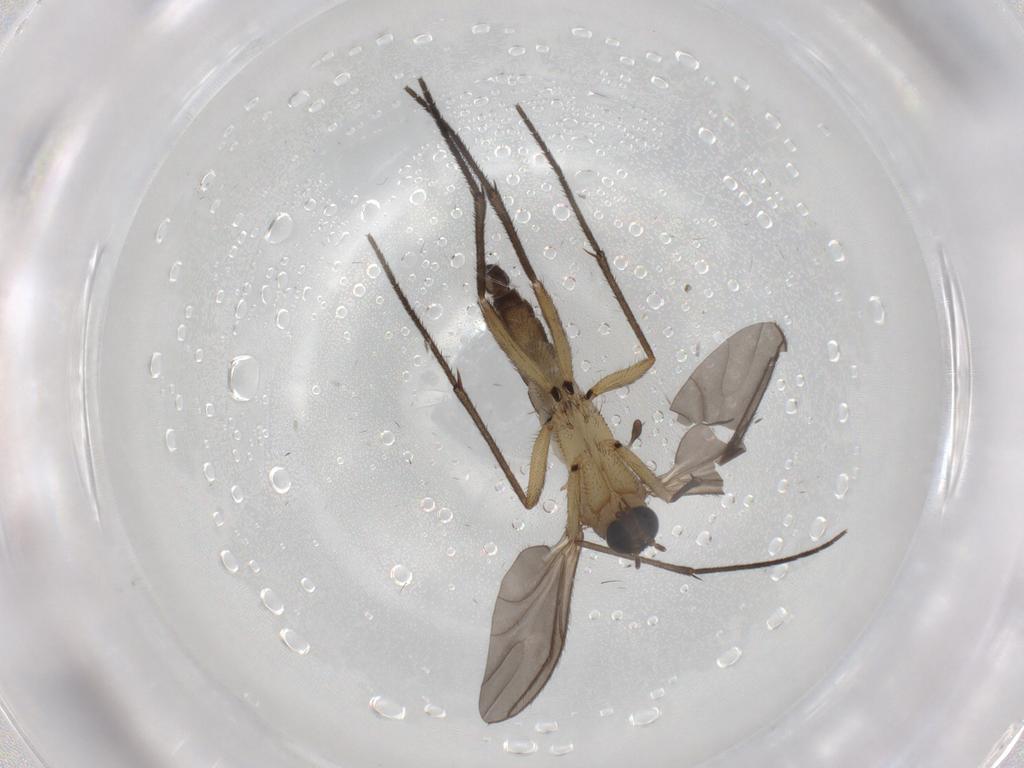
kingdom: Animalia
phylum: Arthropoda
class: Insecta
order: Diptera
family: Sciaridae
